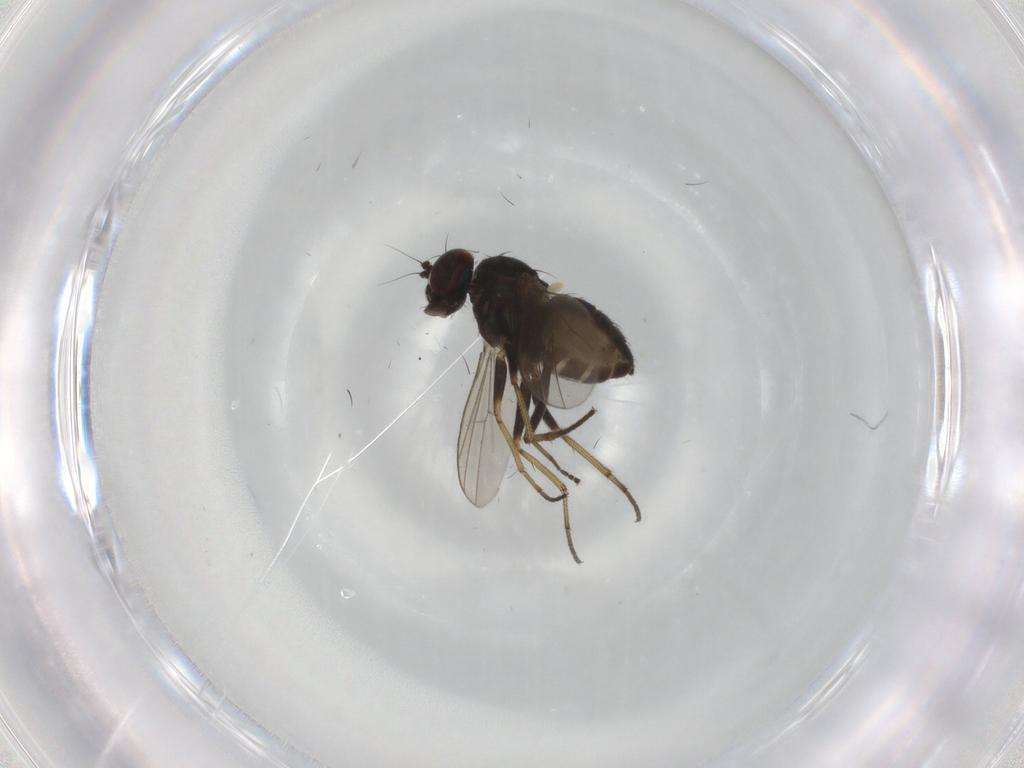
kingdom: Animalia
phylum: Arthropoda
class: Insecta
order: Diptera
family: Dolichopodidae
